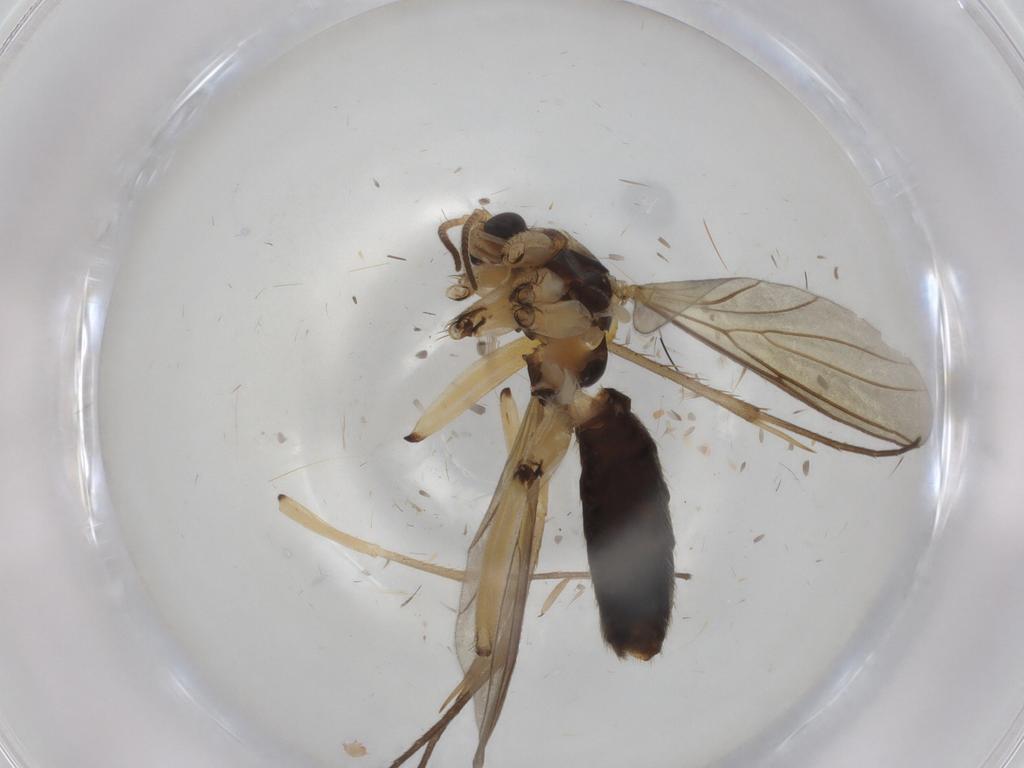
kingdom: Animalia
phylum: Arthropoda
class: Insecta
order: Diptera
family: Mycetophilidae
